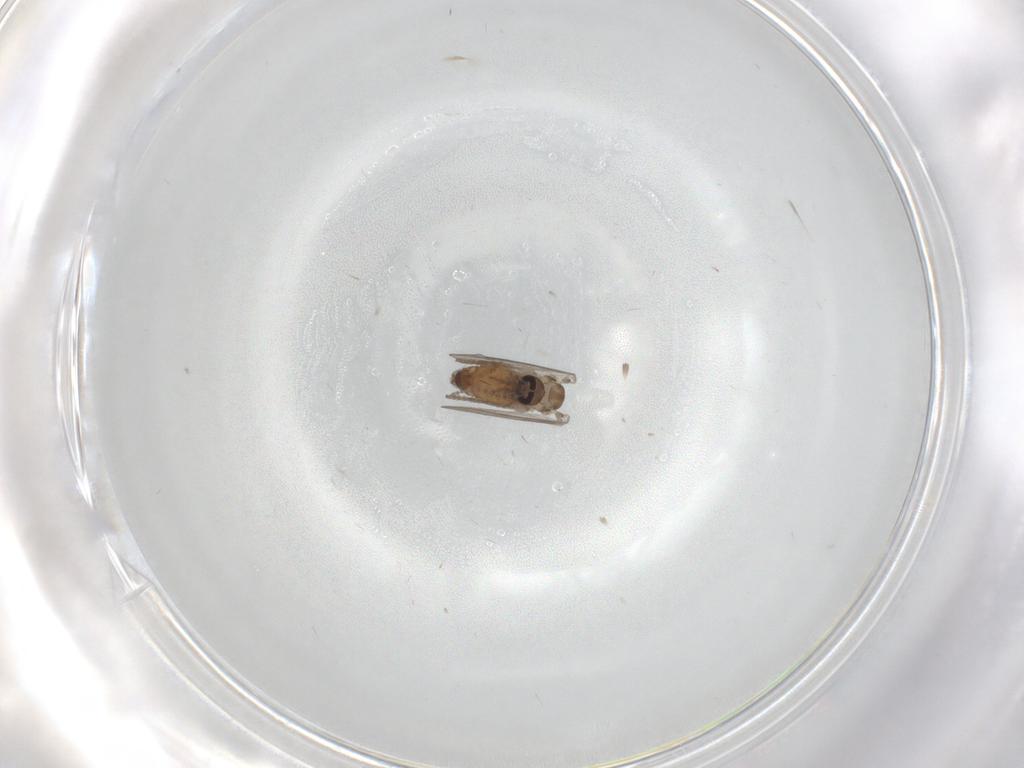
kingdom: Animalia
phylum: Arthropoda
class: Insecta
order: Diptera
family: Psychodidae
